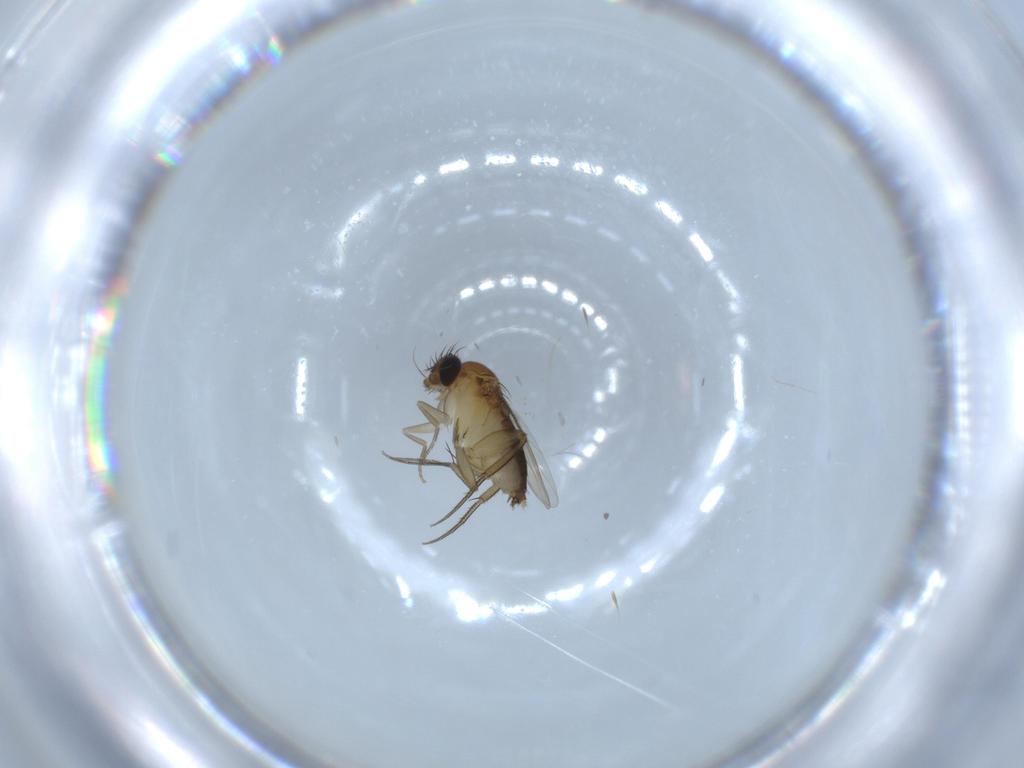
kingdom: Animalia
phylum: Arthropoda
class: Insecta
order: Diptera
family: Phoridae
